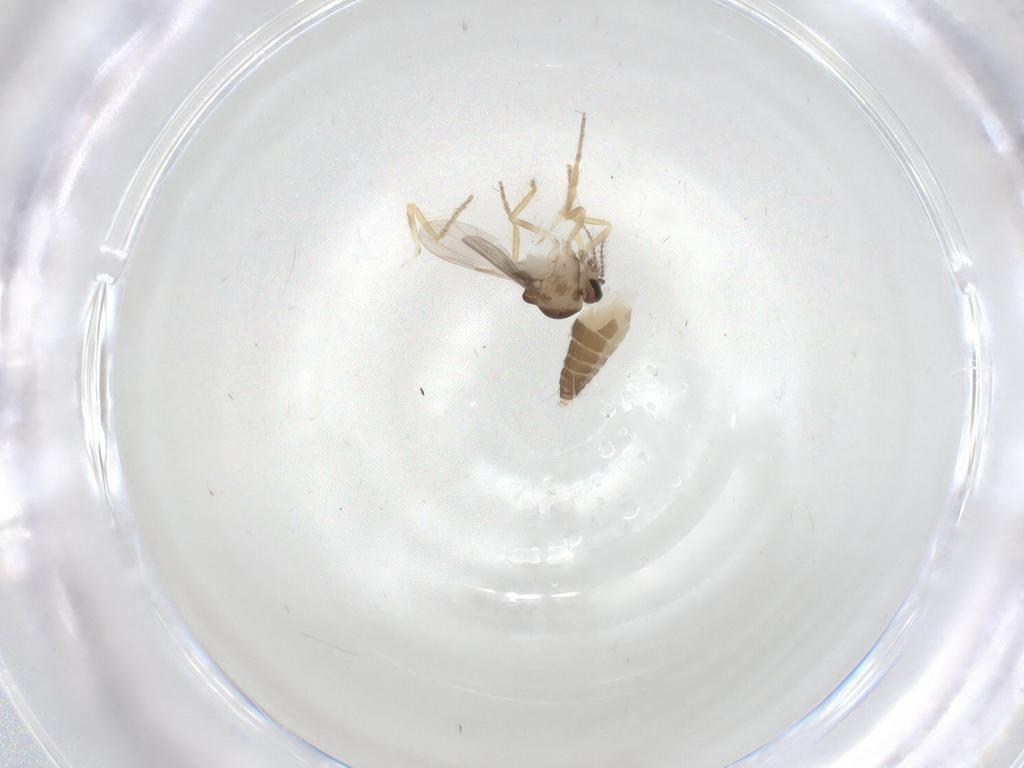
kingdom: Animalia
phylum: Arthropoda
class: Insecta
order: Diptera
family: Ceratopogonidae
